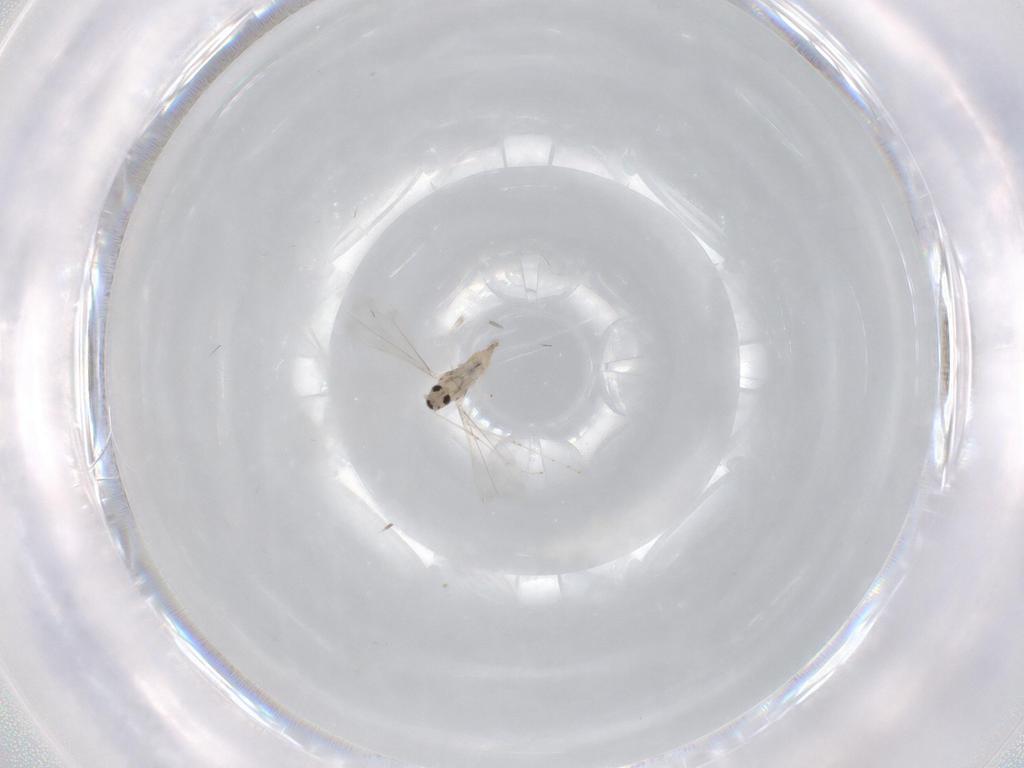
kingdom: Animalia
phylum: Arthropoda
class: Insecta
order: Diptera
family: Cecidomyiidae
